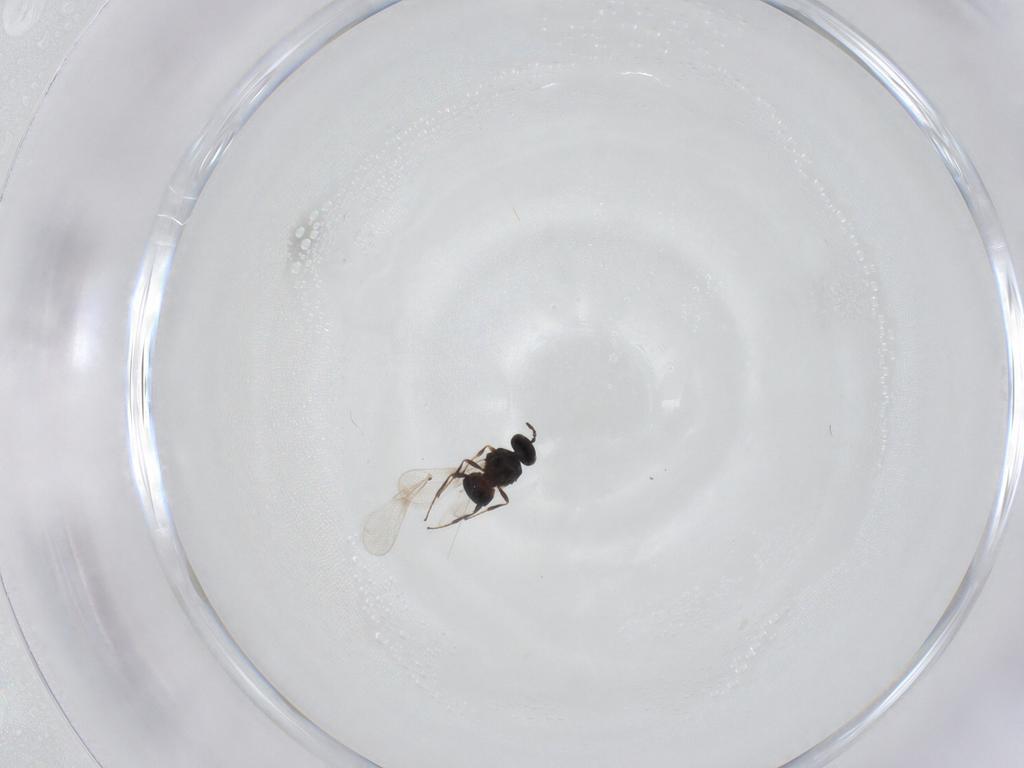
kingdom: Animalia
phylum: Arthropoda
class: Insecta
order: Hymenoptera
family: Platygastridae
